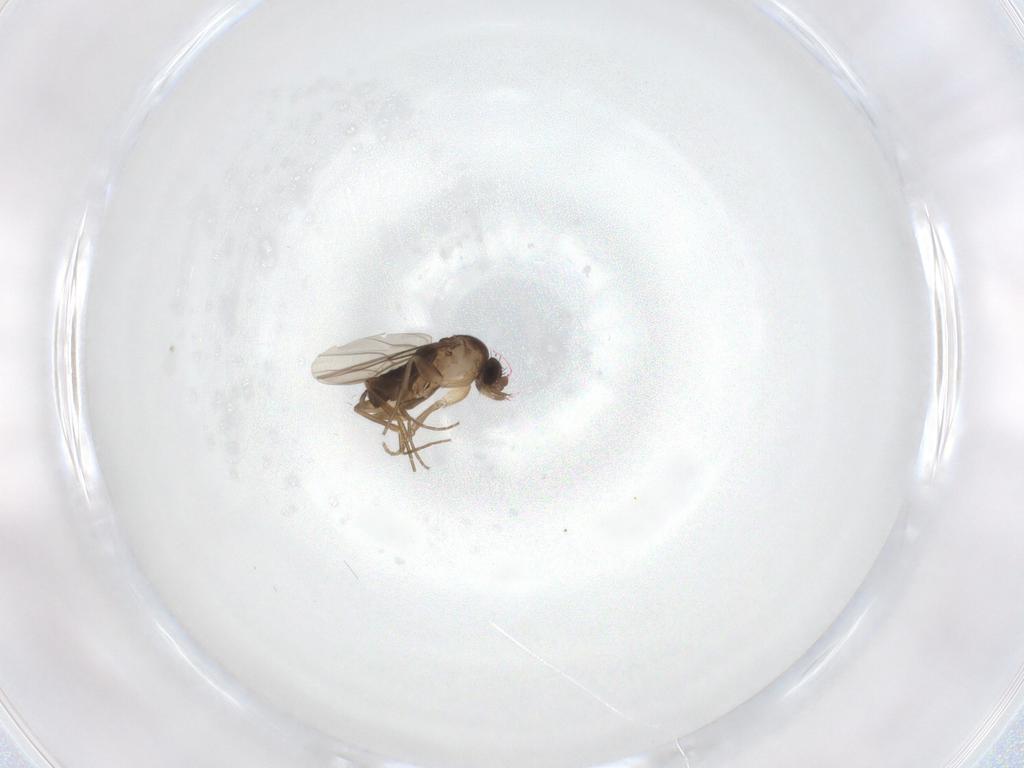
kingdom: Animalia
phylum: Arthropoda
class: Insecta
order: Diptera
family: Phoridae
